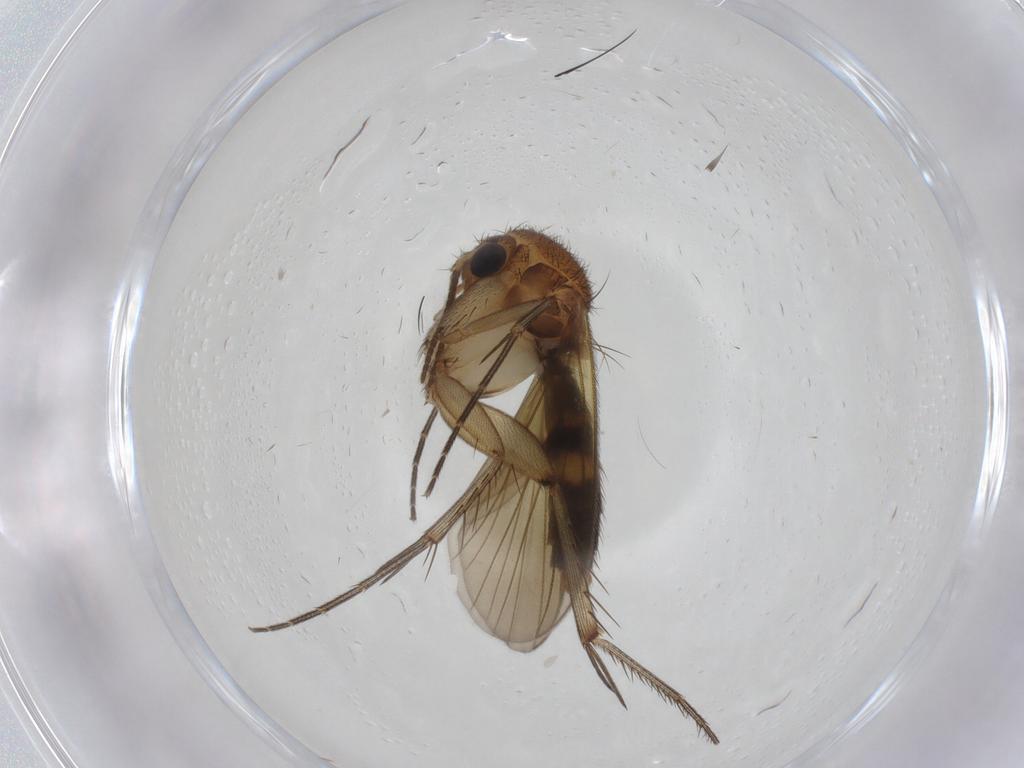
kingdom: Animalia
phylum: Arthropoda
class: Insecta
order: Diptera
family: Mycetophilidae
